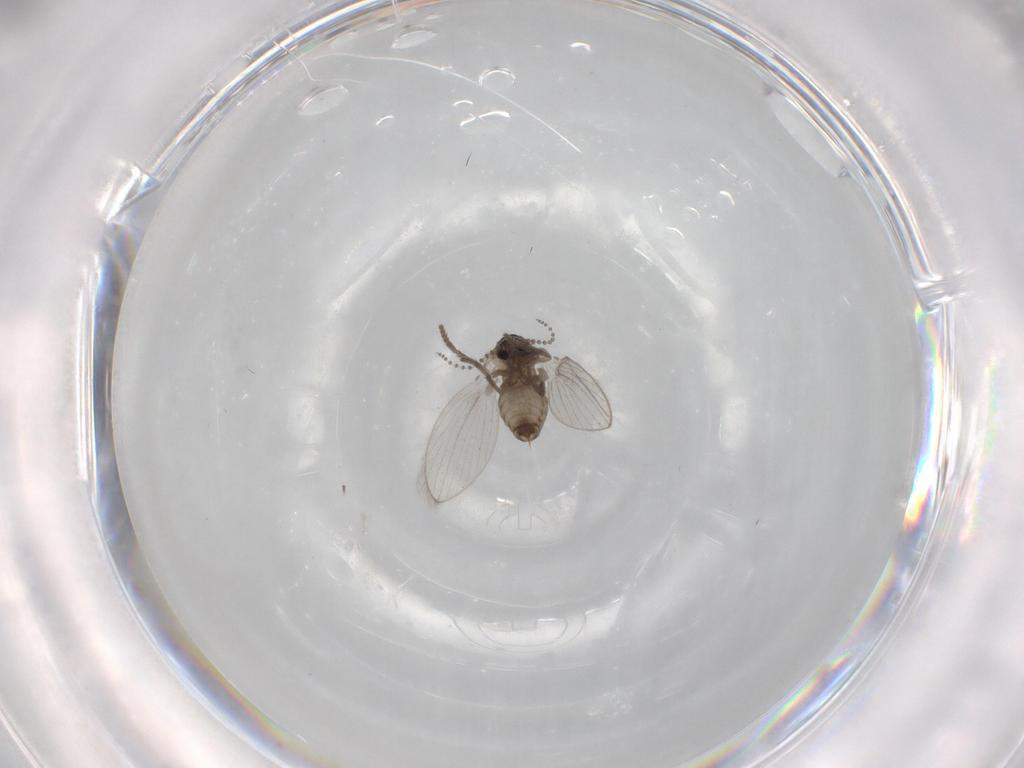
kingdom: Animalia
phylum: Arthropoda
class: Insecta
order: Diptera
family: Psychodidae
